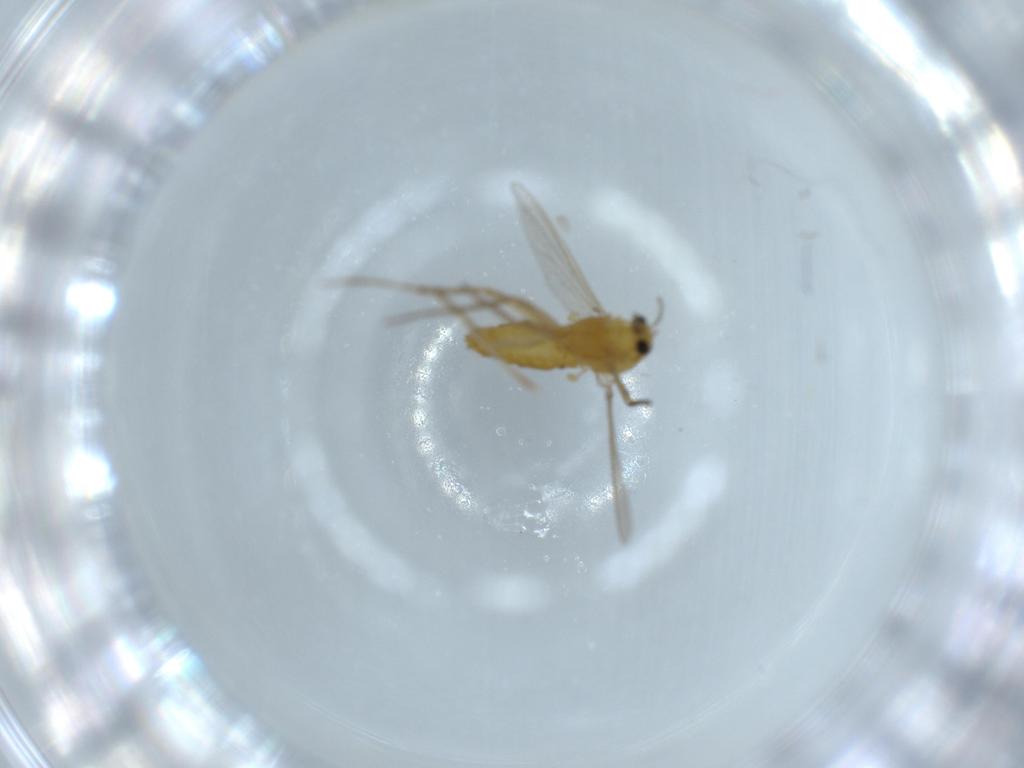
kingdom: Animalia
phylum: Arthropoda
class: Insecta
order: Diptera
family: Chironomidae
